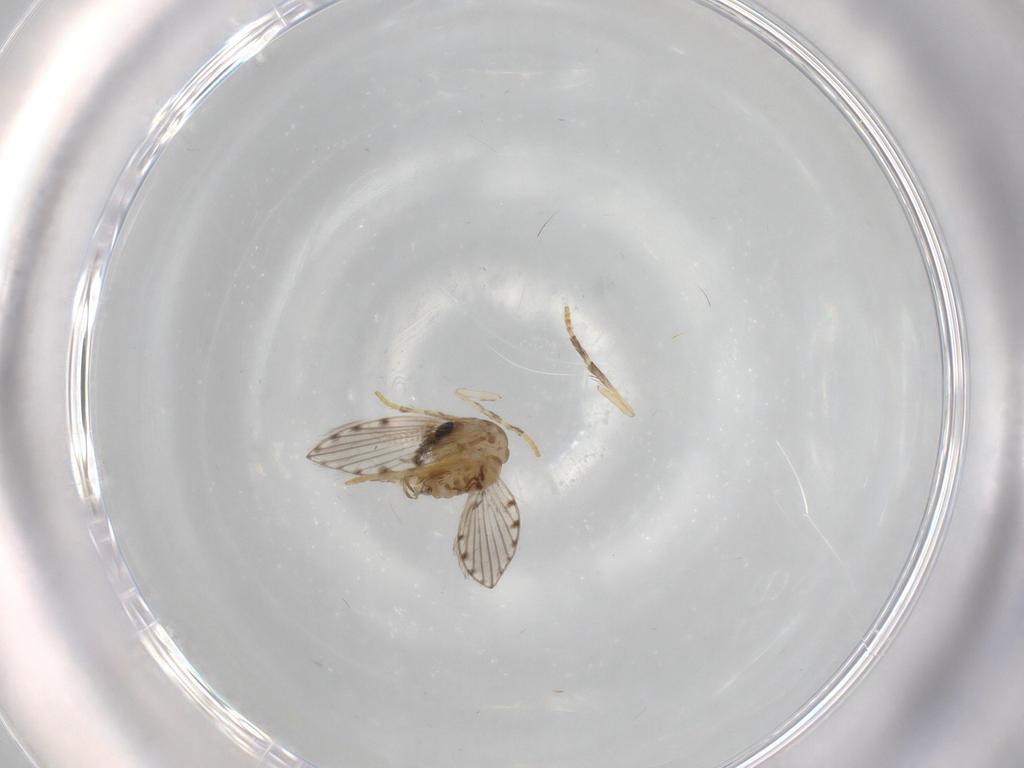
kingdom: Animalia
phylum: Arthropoda
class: Insecta
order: Diptera
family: Psychodidae
